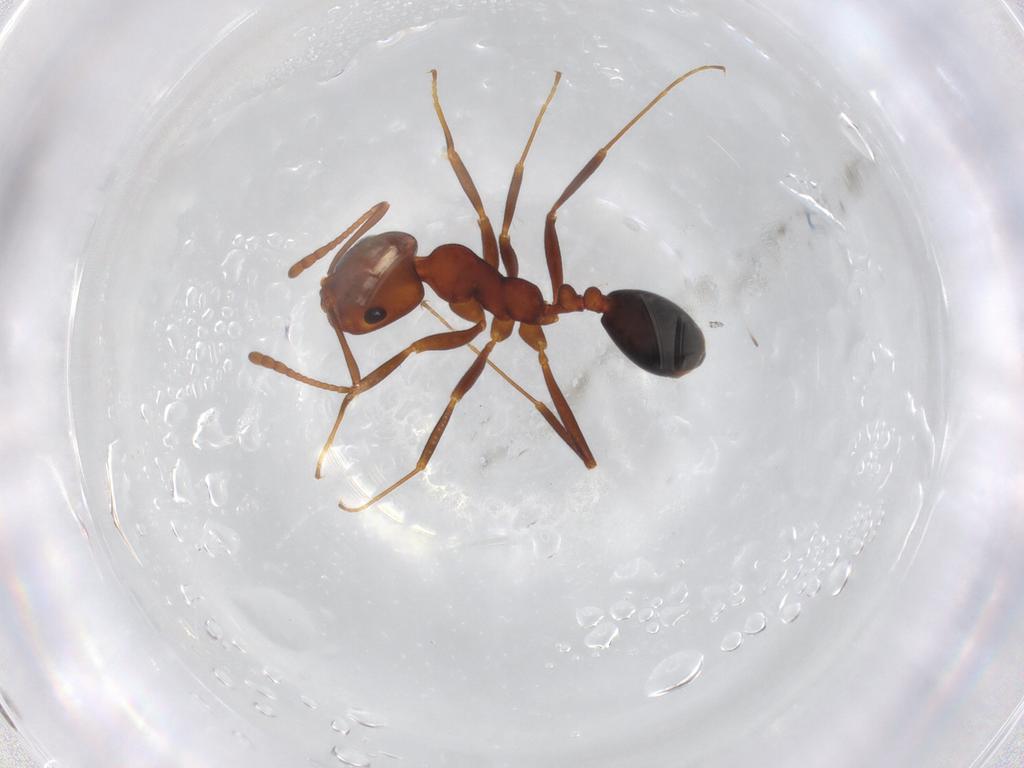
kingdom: Animalia
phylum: Arthropoda
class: Insecta
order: Hymenoptera
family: Formicidae
